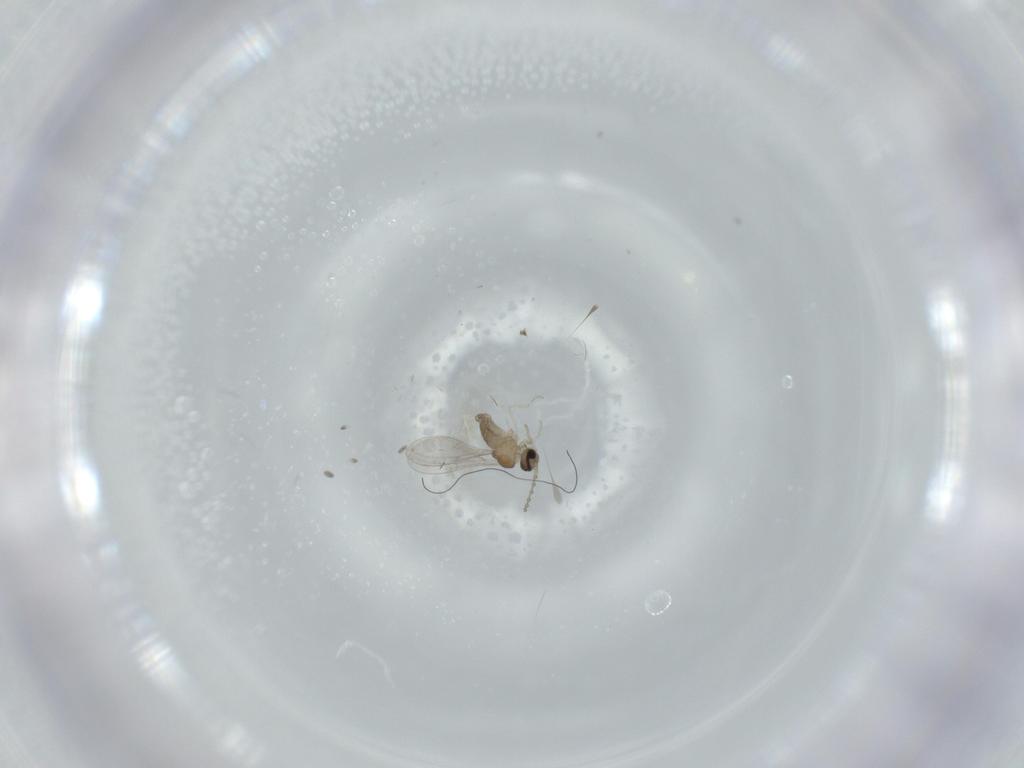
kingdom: Animalia
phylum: Arthropoda
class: Insecta
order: Diptera
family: Cecidomyiidae
